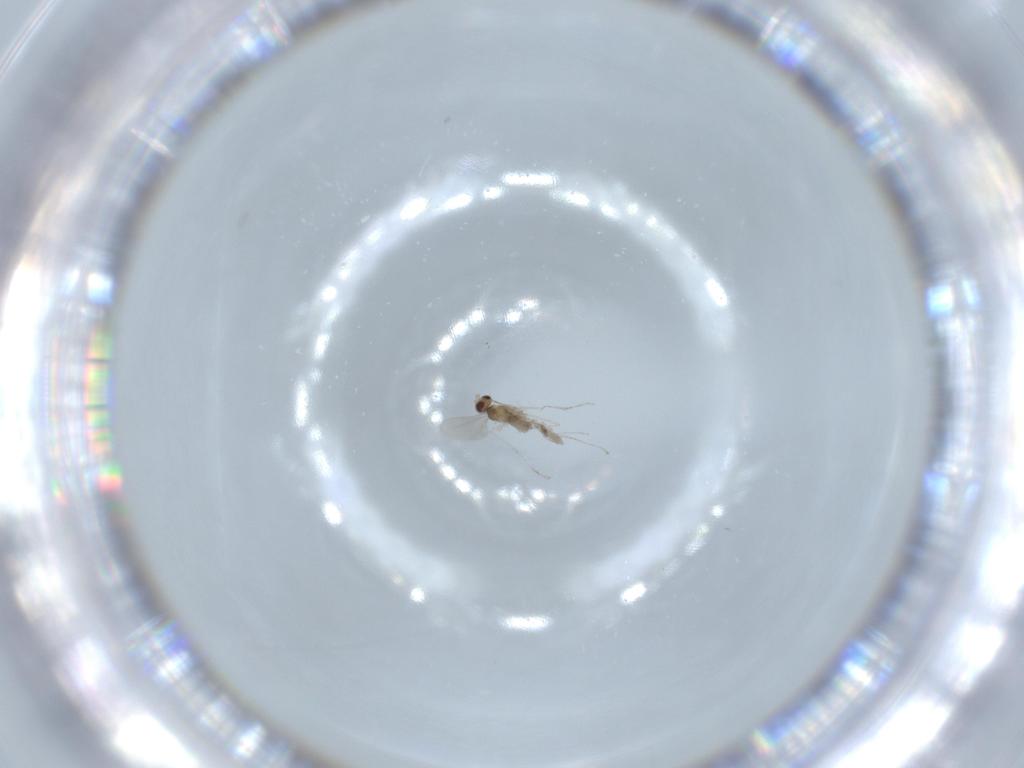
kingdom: Animalia
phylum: Arthropoda
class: Insecta
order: Diptera
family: Cecidomyiidae
